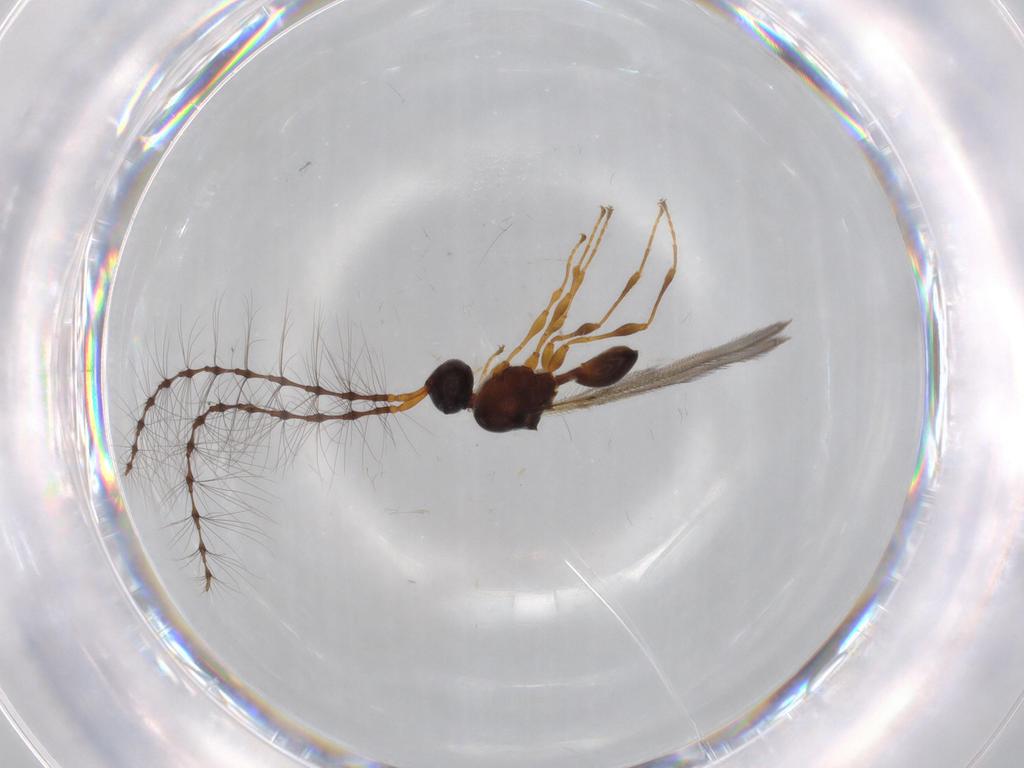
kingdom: Animalia
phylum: Arthropoda
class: Insecta
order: Hymenoptera
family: Diapriidae
